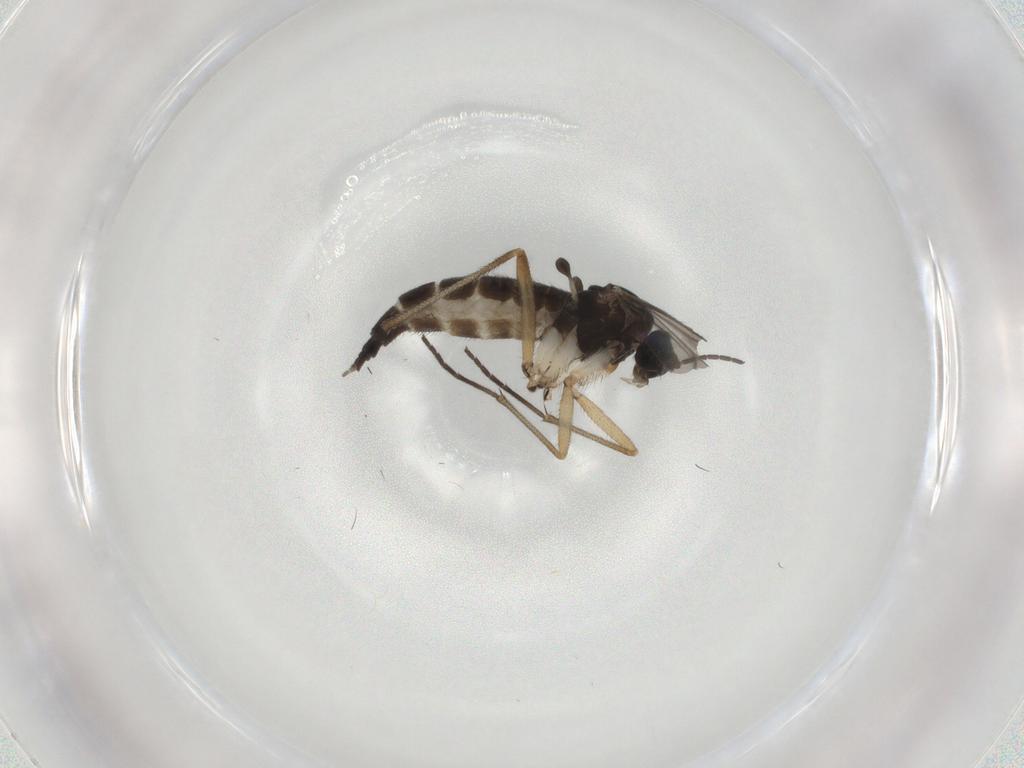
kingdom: Animalia
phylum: Arthropoda
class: Insecta
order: Diptera
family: Sciaridae
